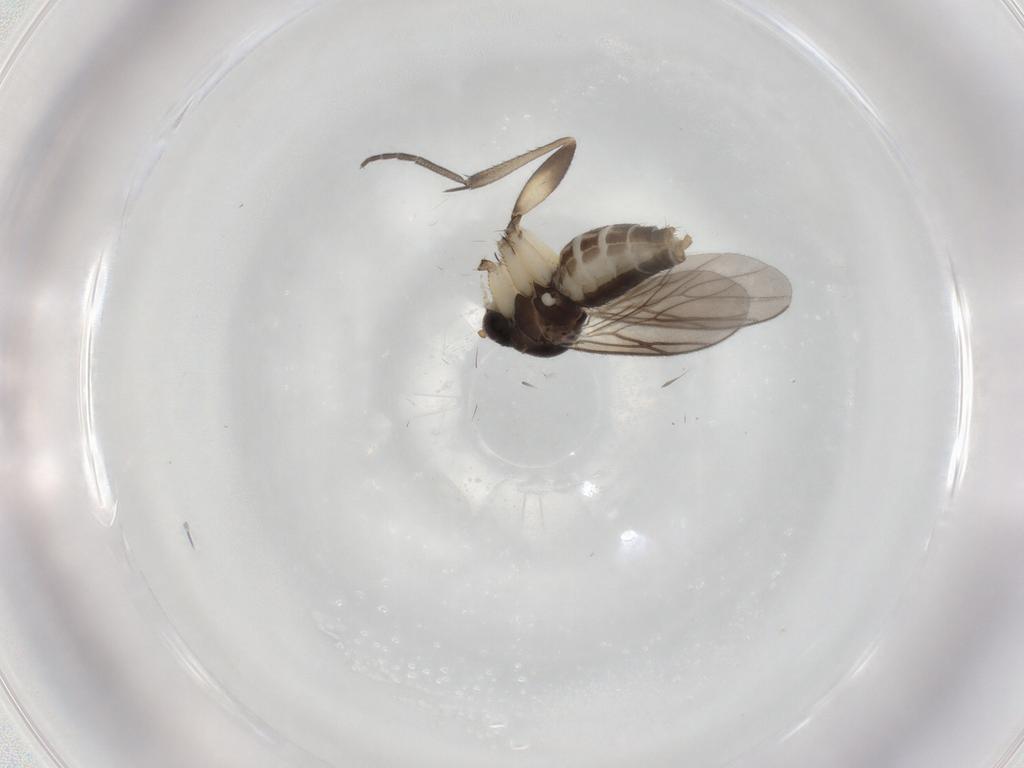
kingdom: Animalia
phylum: Arthropoda
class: Insecta
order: Diptera
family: Mycetophilidae
